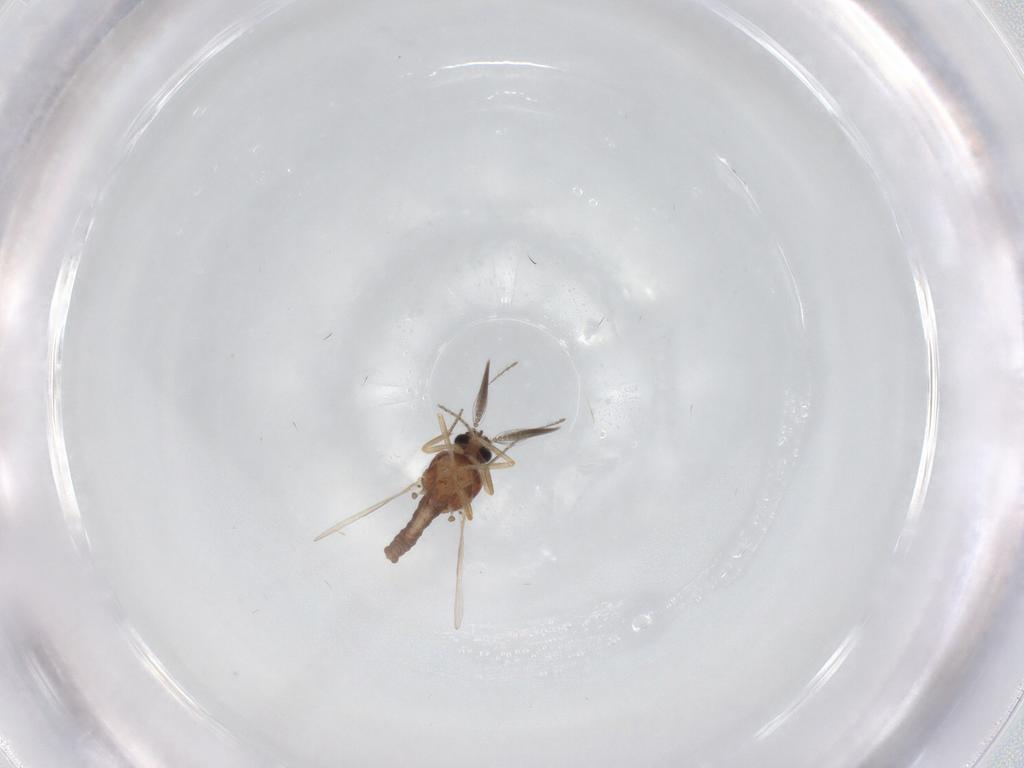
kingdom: Animalia
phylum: Arthropoda
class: Insecta
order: Diptera
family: Ceratopogonidae
